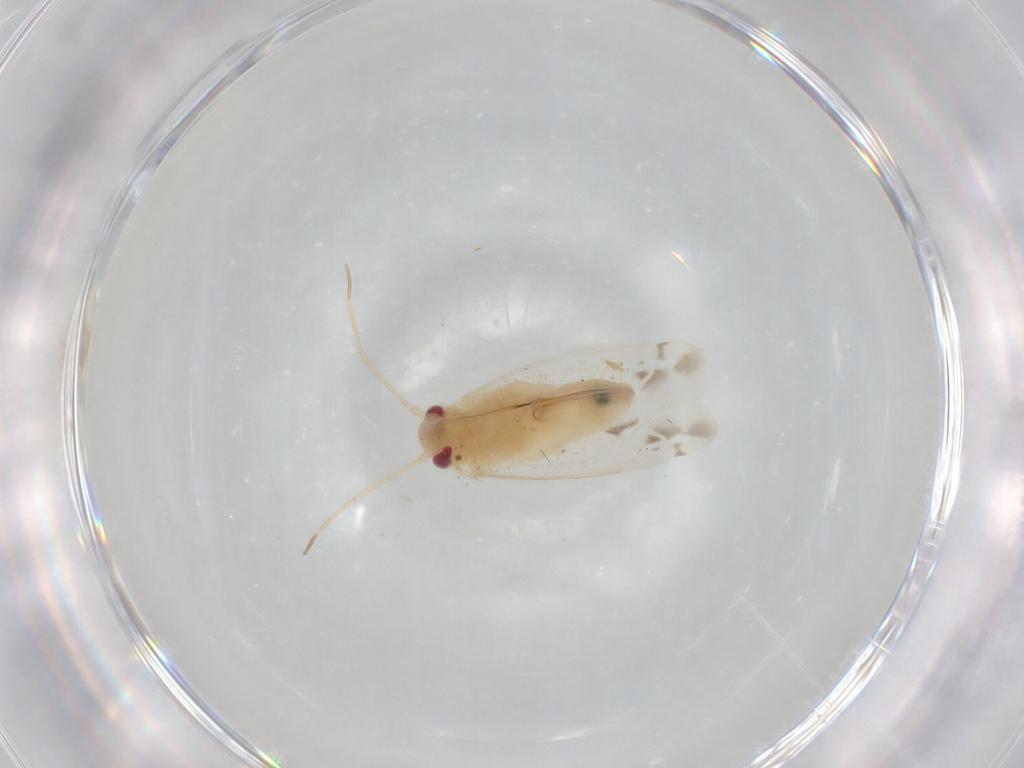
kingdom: Animalia
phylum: Arthropoda
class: Insecta
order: Hemiptera
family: Miridae
